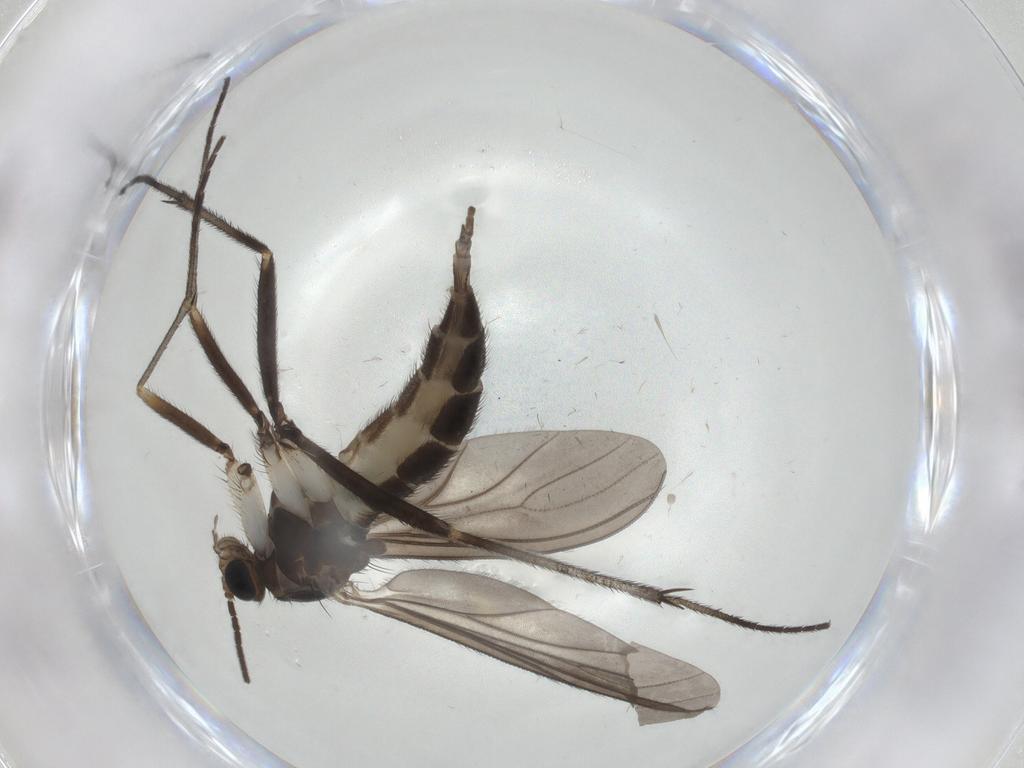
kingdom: Animalia
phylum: Arthropoda
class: Insecta
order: Diptera
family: Sciaridae
